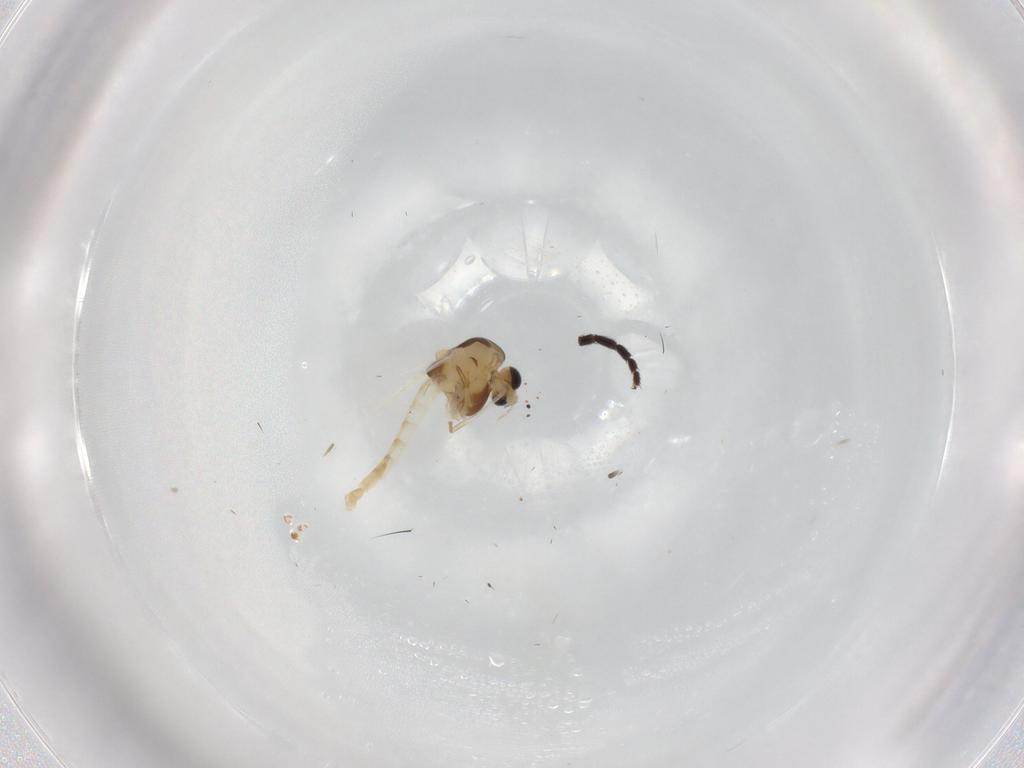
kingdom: Animalia
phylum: Arthropoda
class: Insecta
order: Diptera
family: Chironomidae
